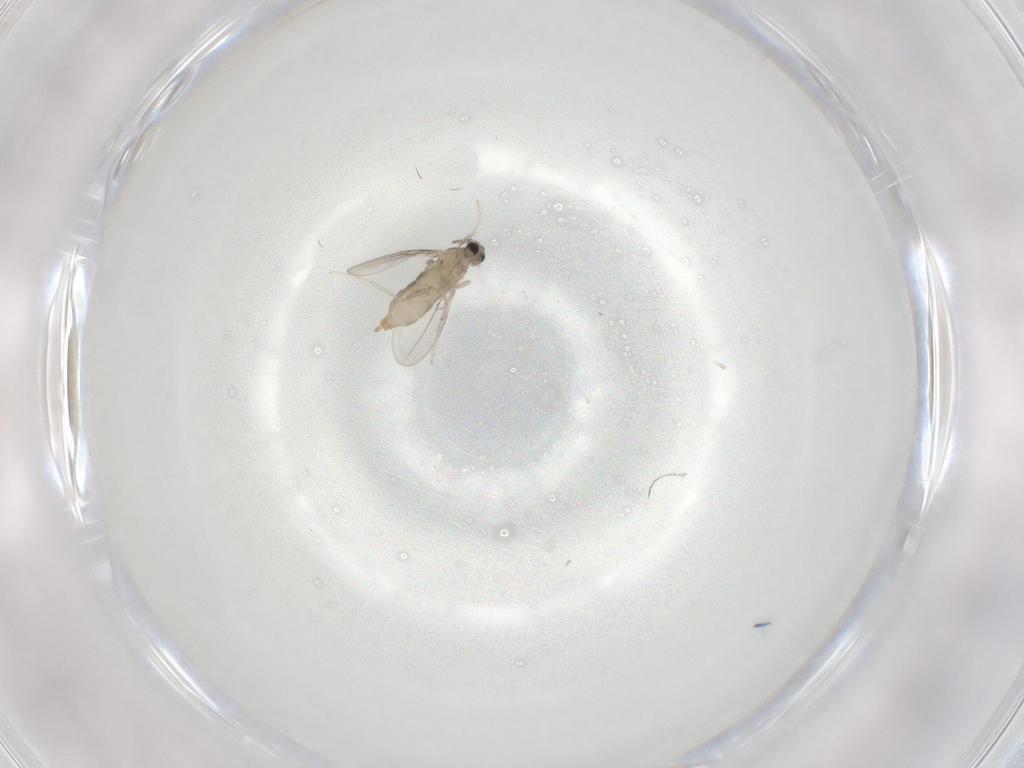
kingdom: Animalia
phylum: Arthropoda
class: Insecta
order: Diptera
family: Cecidomyiidae
